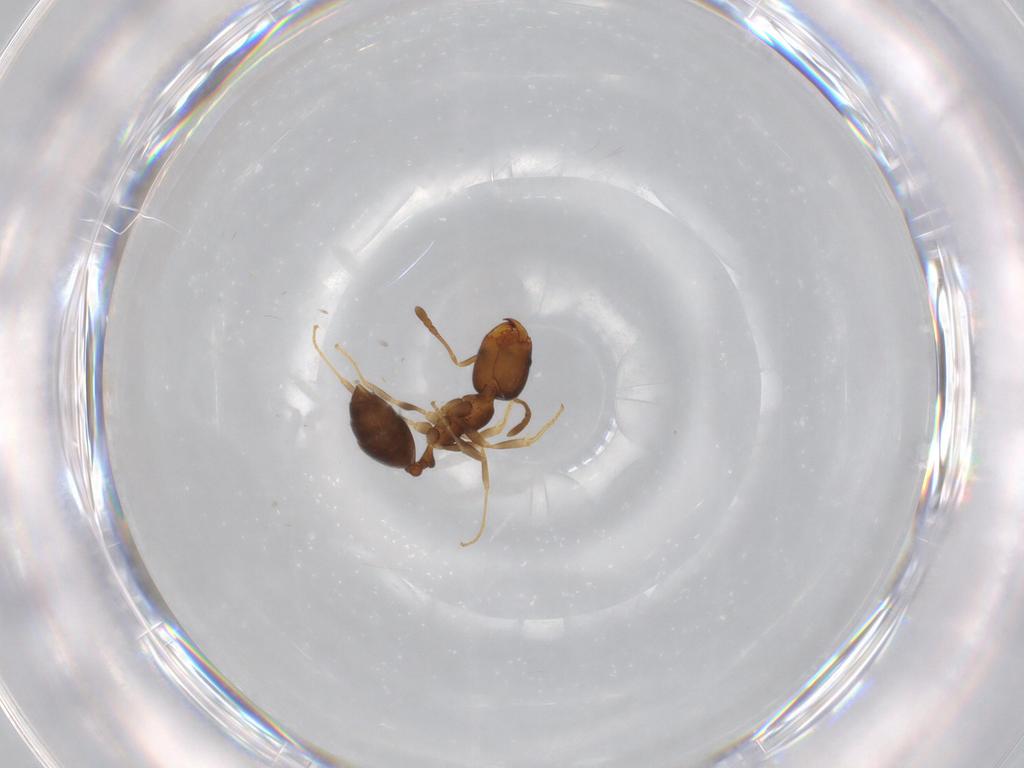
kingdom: Animalia
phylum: Arthropoda
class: Insecta
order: Hymenoptera
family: Formicidae
